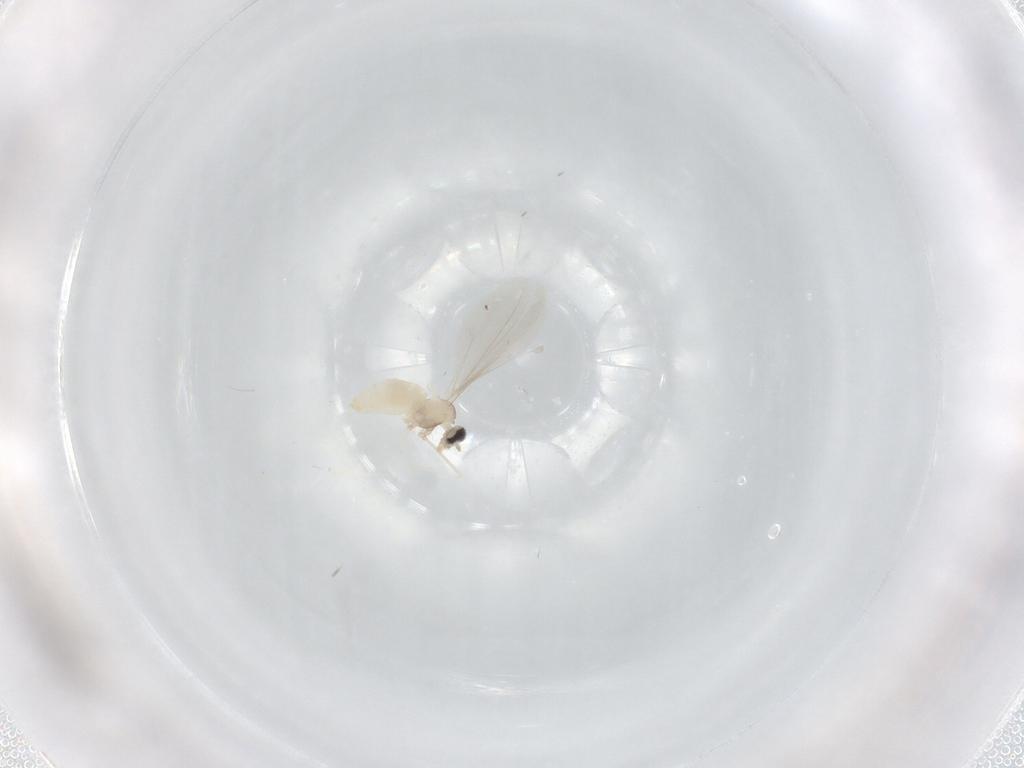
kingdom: Animalia
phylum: Arthropoda
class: Insecta
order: Diptera
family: Cecidomyiidae
